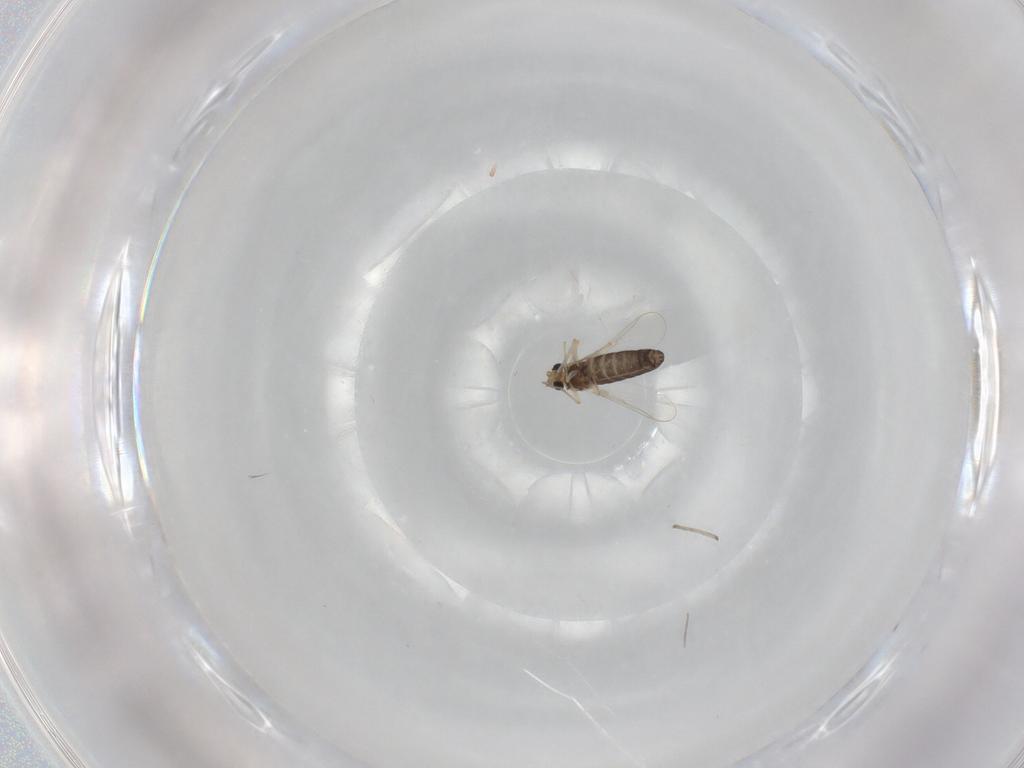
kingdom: Animalia
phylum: Arthropoda
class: Insecta
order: Diptera
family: Chironomidae
